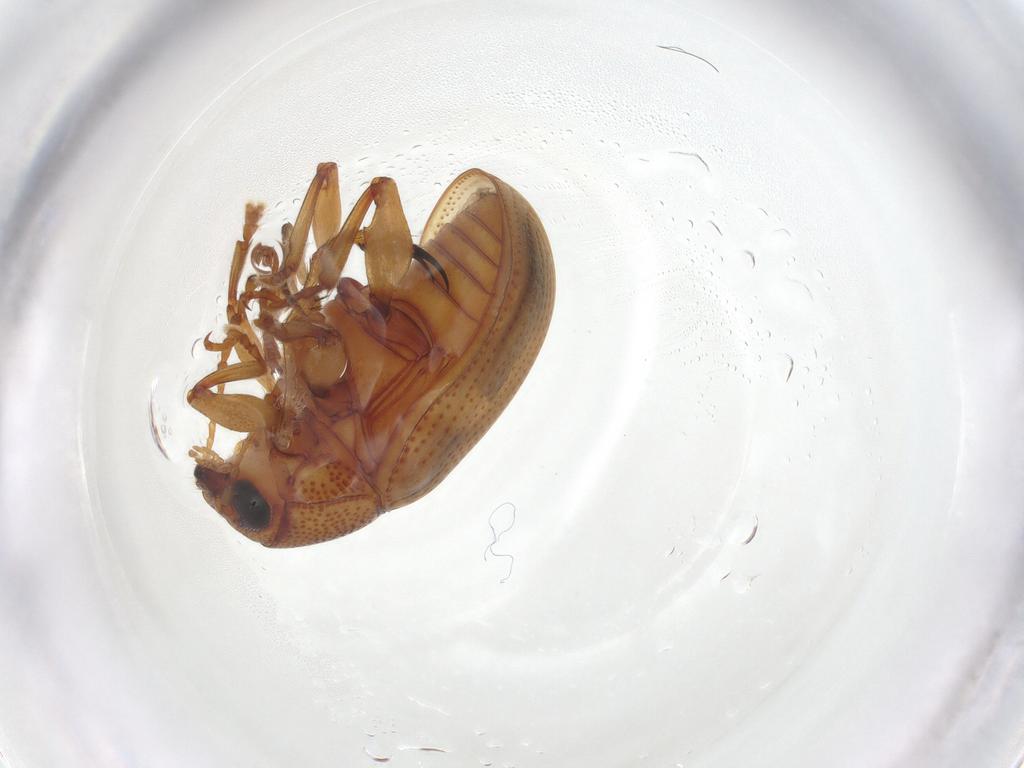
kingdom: Animalia
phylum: Arthropoda
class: Insecta
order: Coleoptera
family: Chrysomelidae
